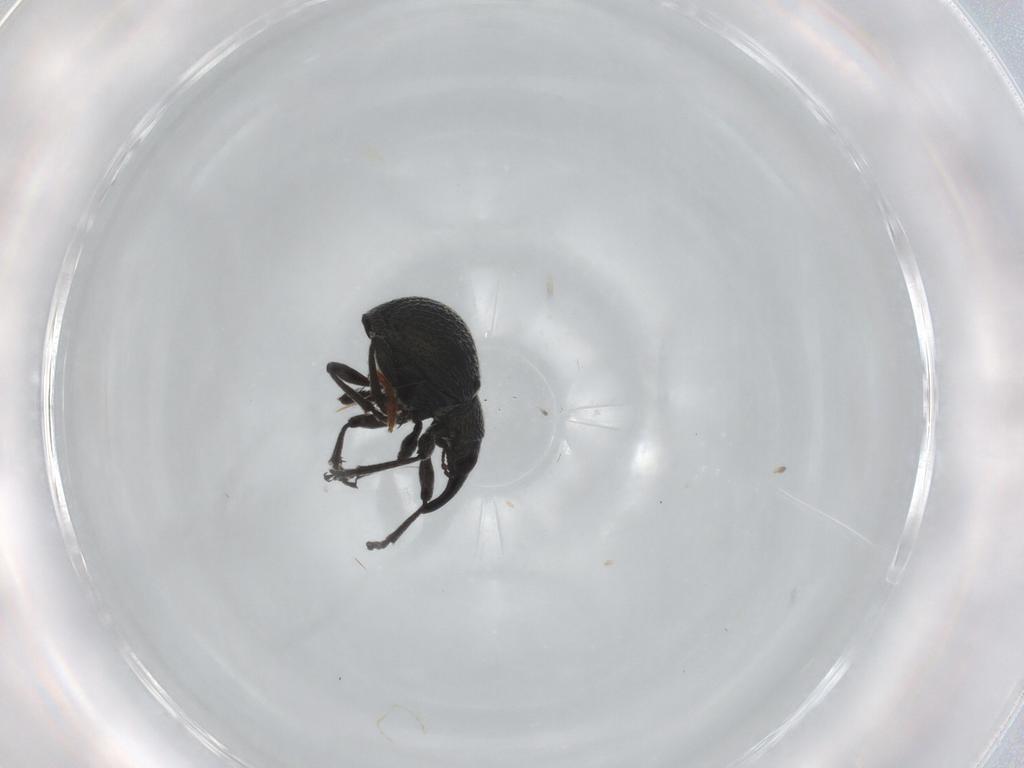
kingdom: Animalia
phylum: Arthropoda
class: Insecta
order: Coleoptera
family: Brentidae
